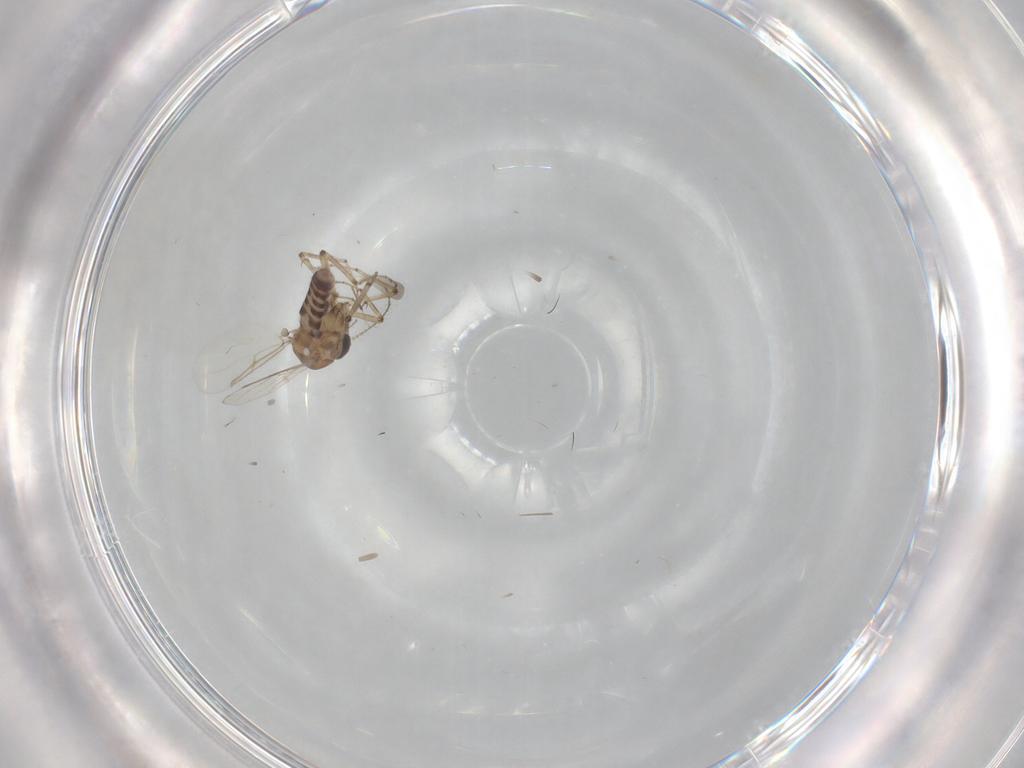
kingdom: Animalia
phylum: Arthropoda
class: Insecta
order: Diptera
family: Ceratopogonidae
